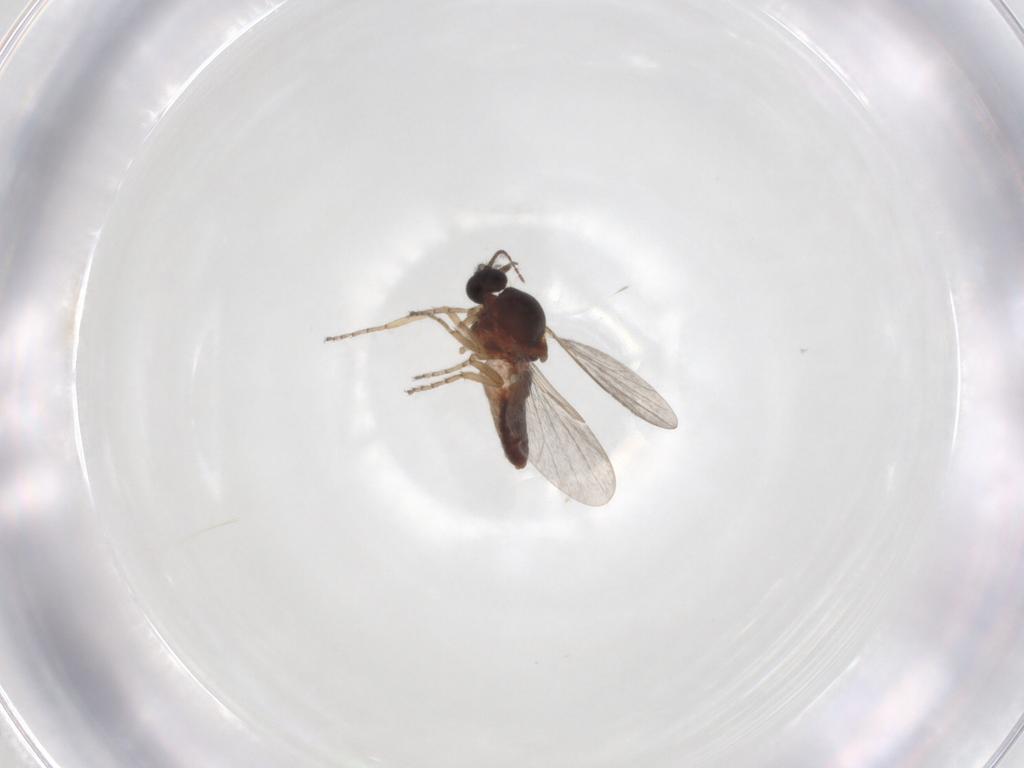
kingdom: Animalia
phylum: Arthropoda
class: Insecta
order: Diptera
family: Ceratopogonidae
